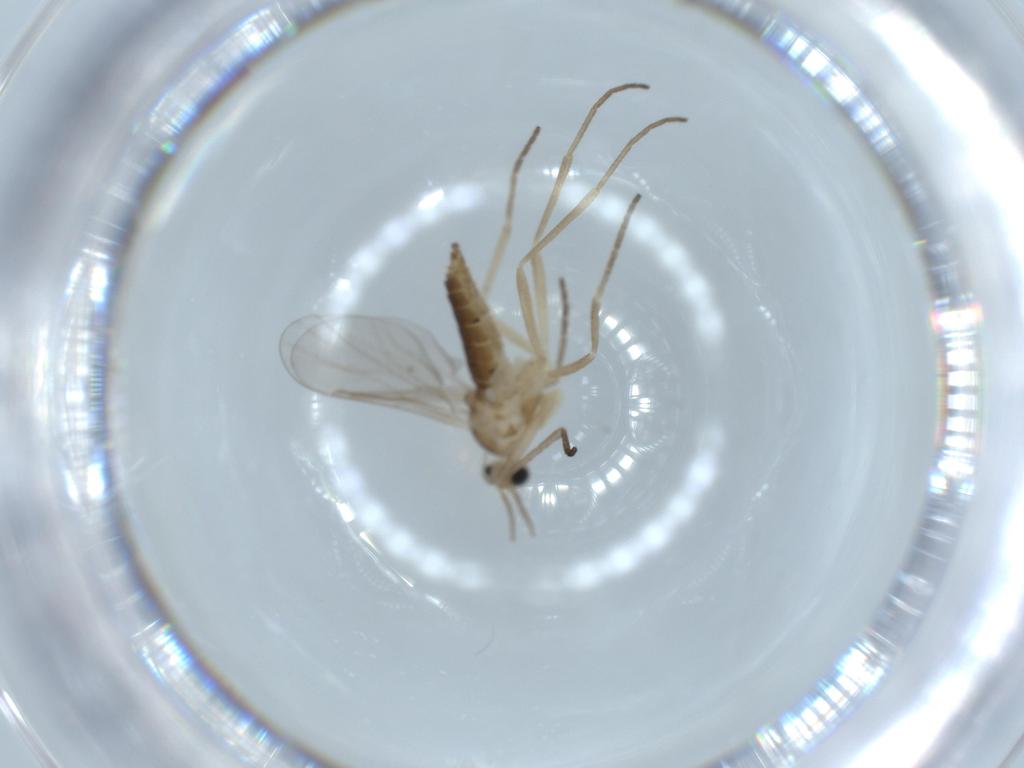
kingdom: Animalia
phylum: Arthropoda
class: Insecta
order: Diptera
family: Cecidomyiidae
